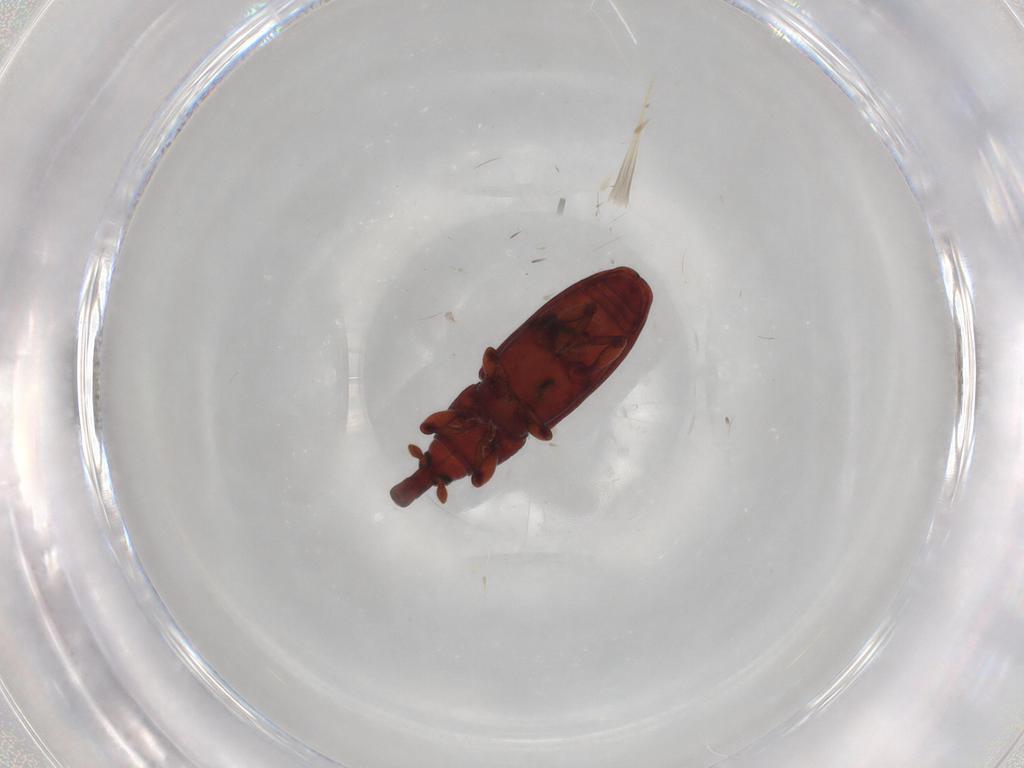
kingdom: Animalia
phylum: Arthropoda
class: Insecta
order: Coleoptera
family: Curculionidae
